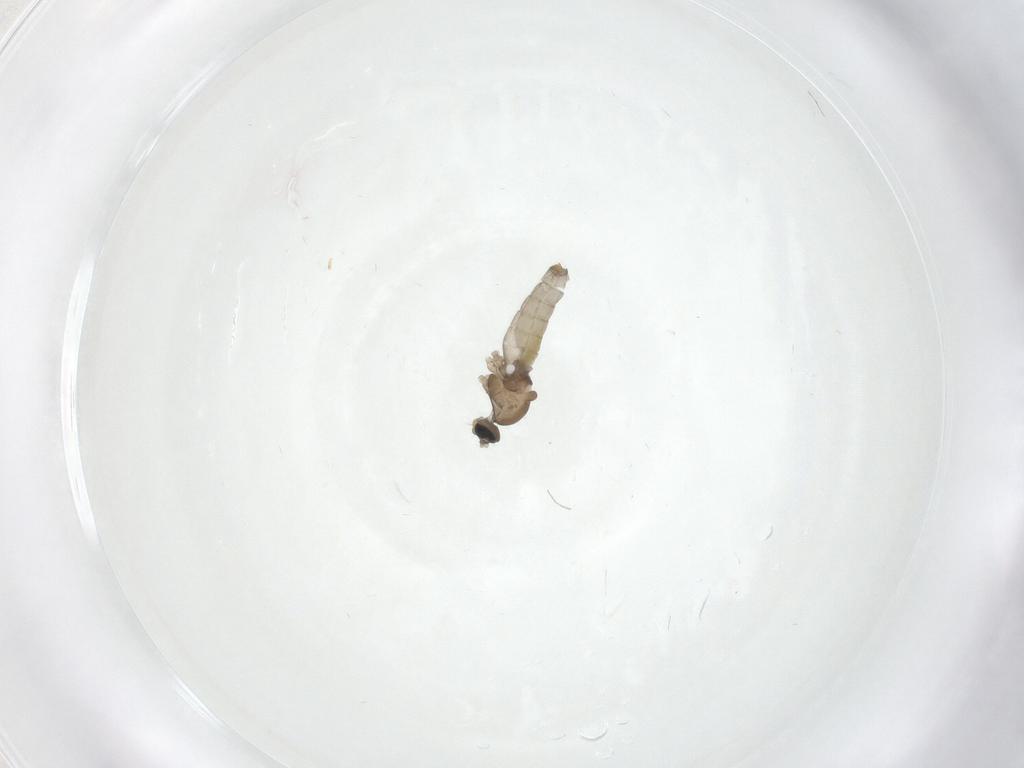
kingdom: Animalia
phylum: Arthropoda
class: Insecta
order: Diptera
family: Cecidomyiidae
